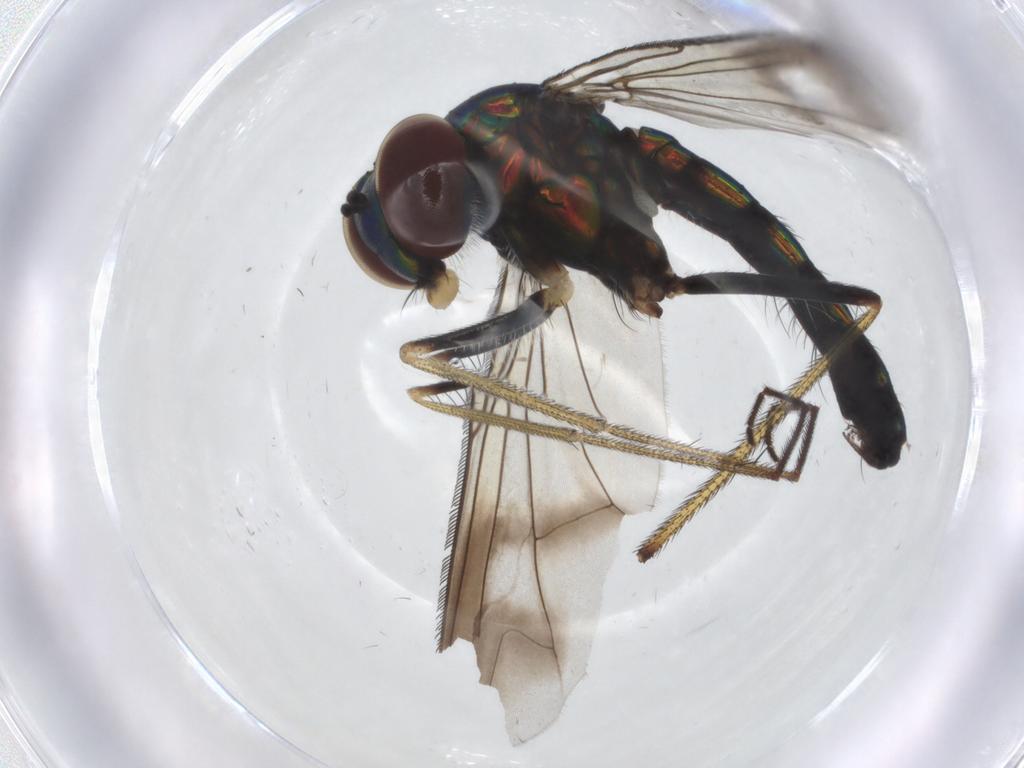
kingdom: Animalia
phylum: Arthropoda
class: Insecta
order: Diptera
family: Dolichopodidae
